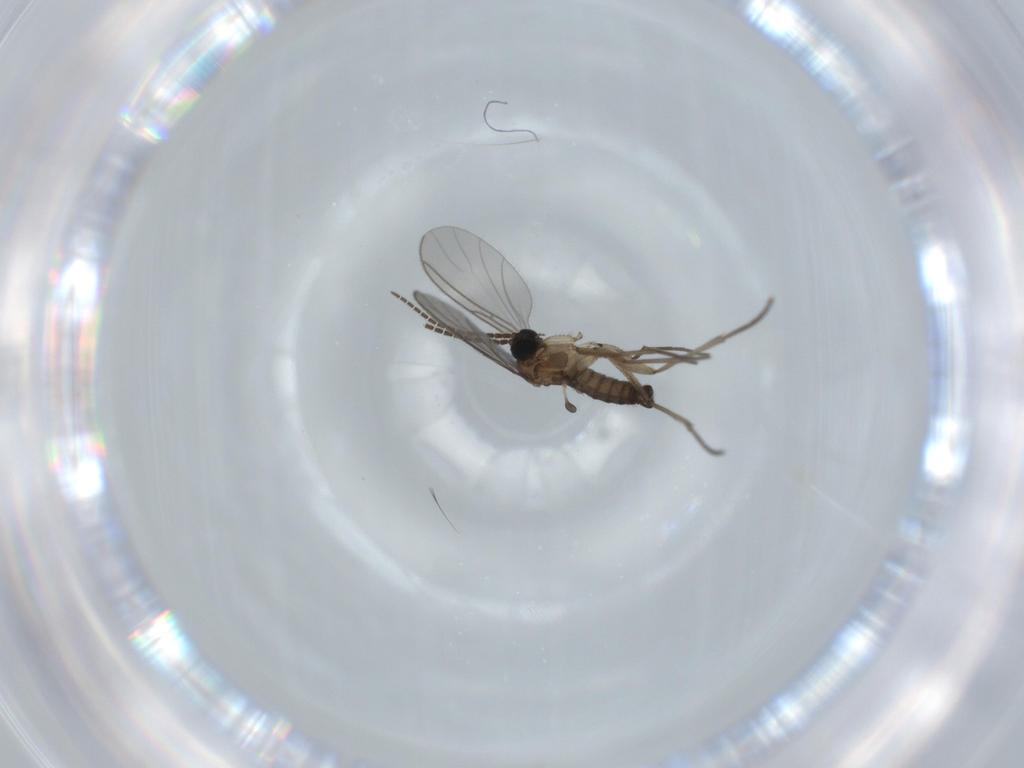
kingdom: Animalia
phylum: Arthropoda
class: Insecta
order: Diptera
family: Sciaridae
